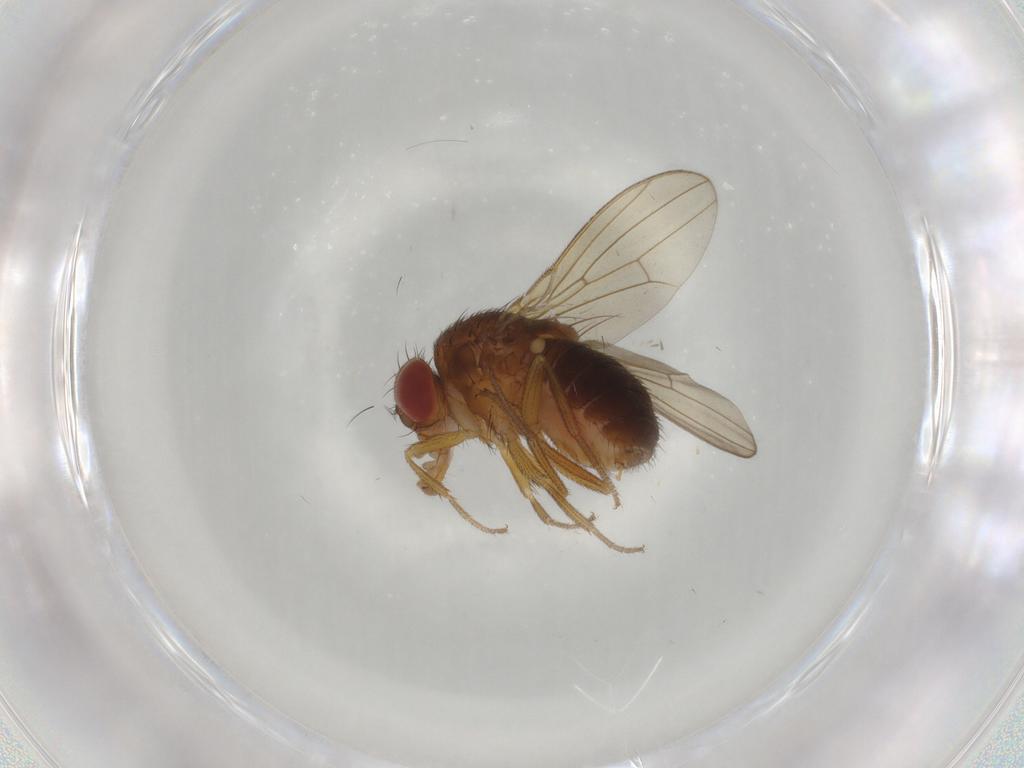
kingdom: Animalia
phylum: Arthropoda
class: Insecta
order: Diptera
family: Drosophilidae
